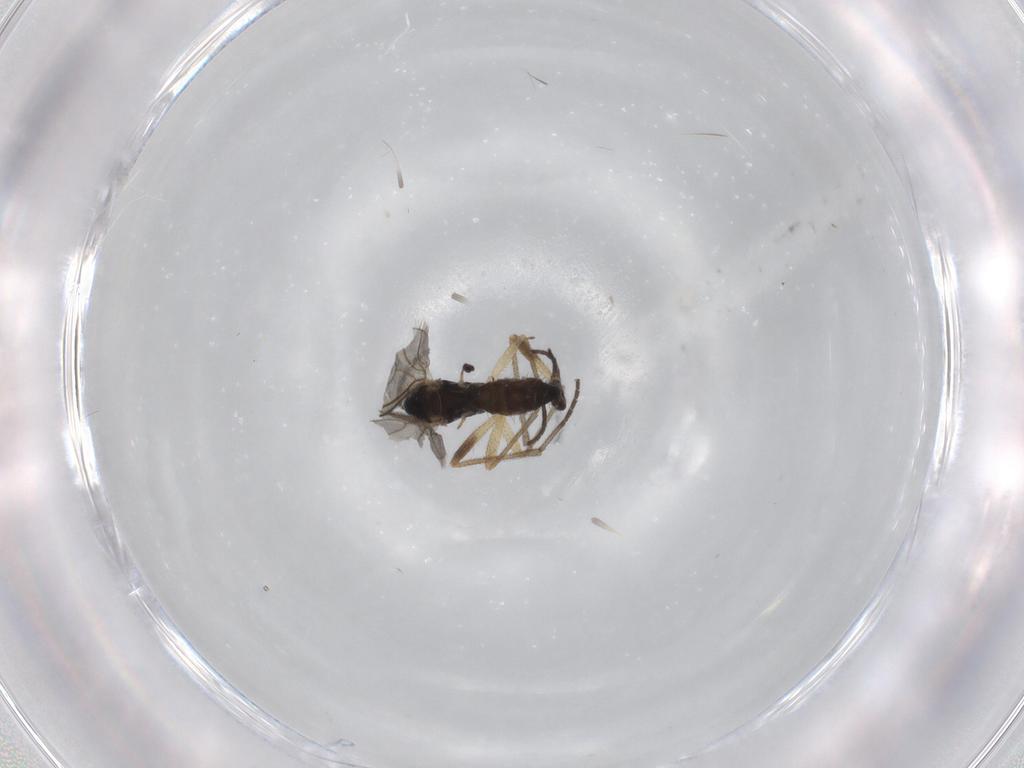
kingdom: Animalia
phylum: Arthropoda
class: Insecta
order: Diptera
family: Sciaridae
